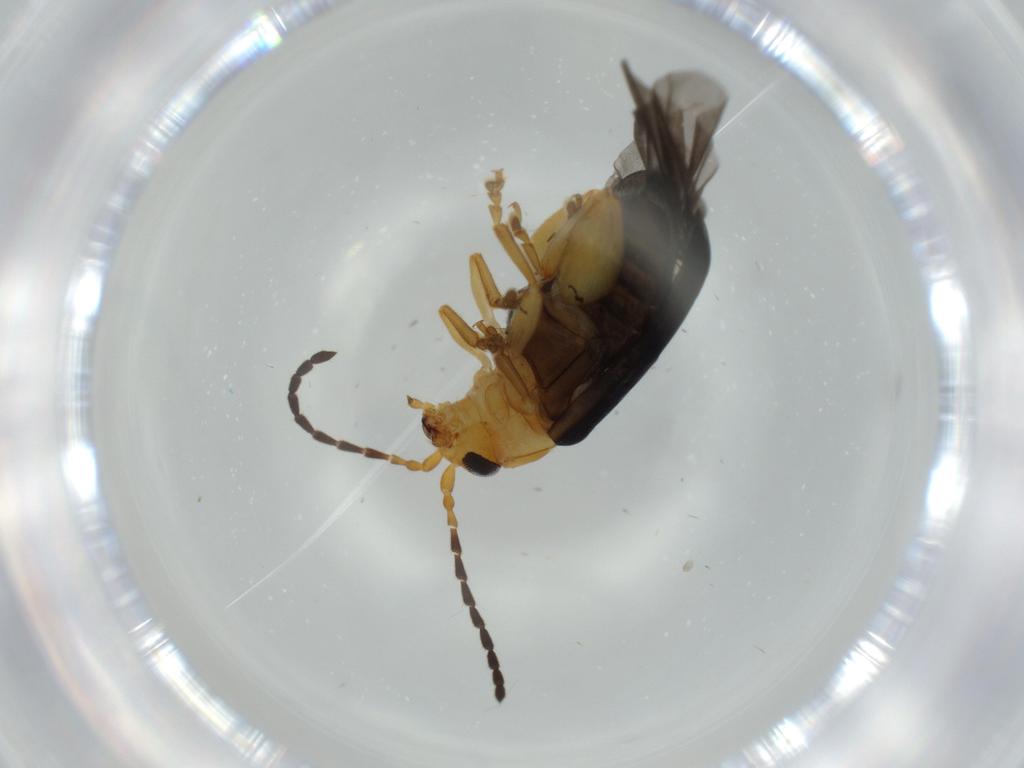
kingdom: Animalia
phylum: Arthropoda
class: Insecta
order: Coleoptera
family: Chrysomelidae
